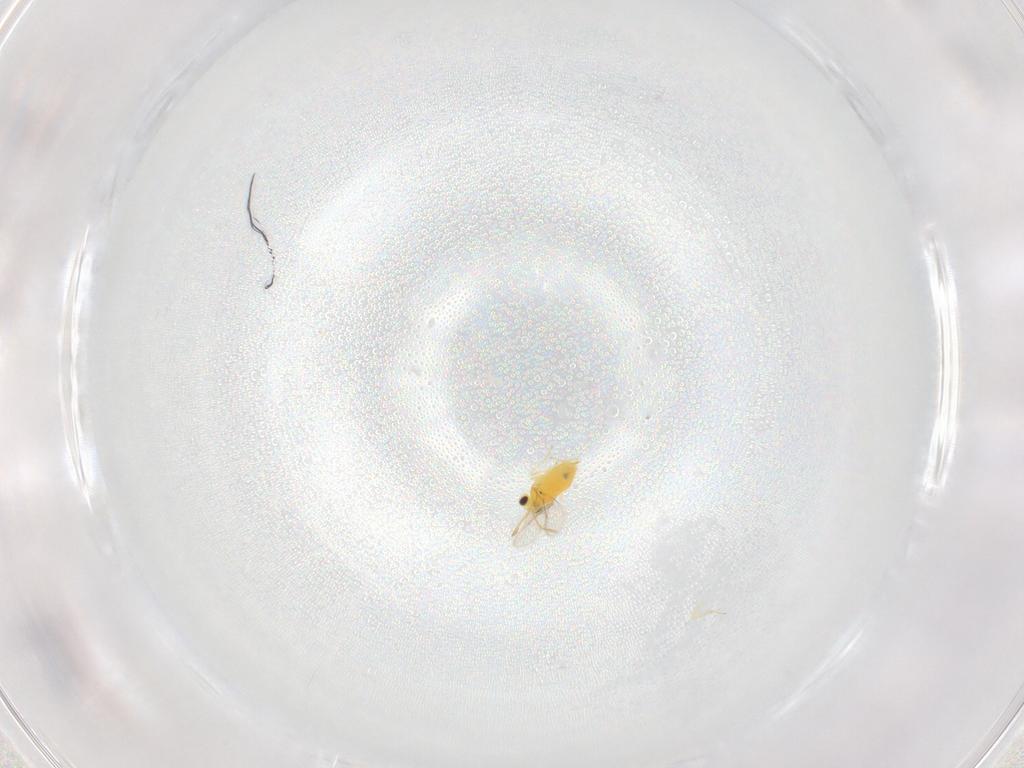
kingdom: Animalia
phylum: Arthropoda
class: Insecta
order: Hymenoptera
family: Aphelinidae
